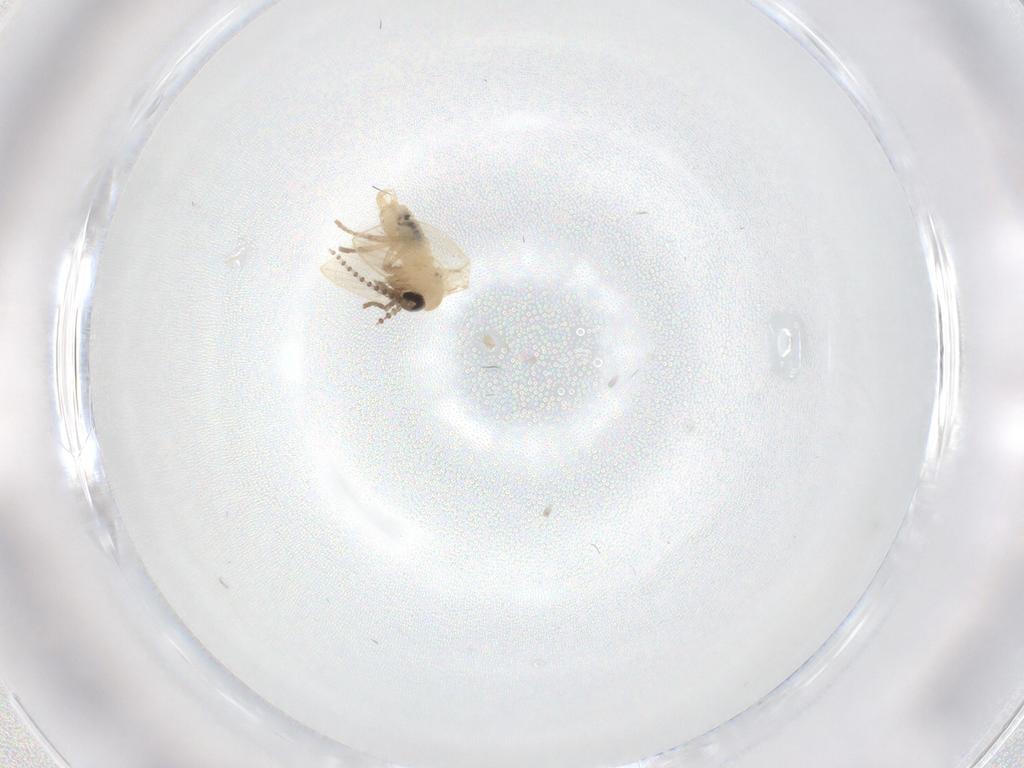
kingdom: Animalia
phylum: Arthropoda
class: Insecta
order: Diptera
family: Psychodidae
